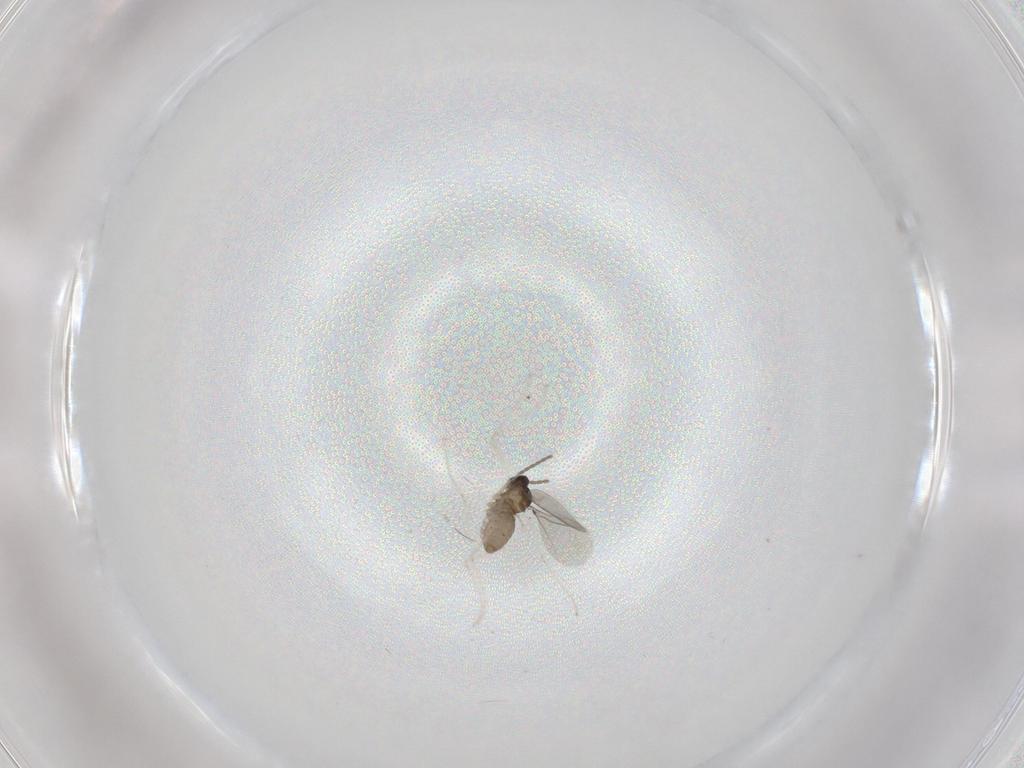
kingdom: Animalia
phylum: Arthropoda
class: Insecta
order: Diptera
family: Cecidomyiidae
